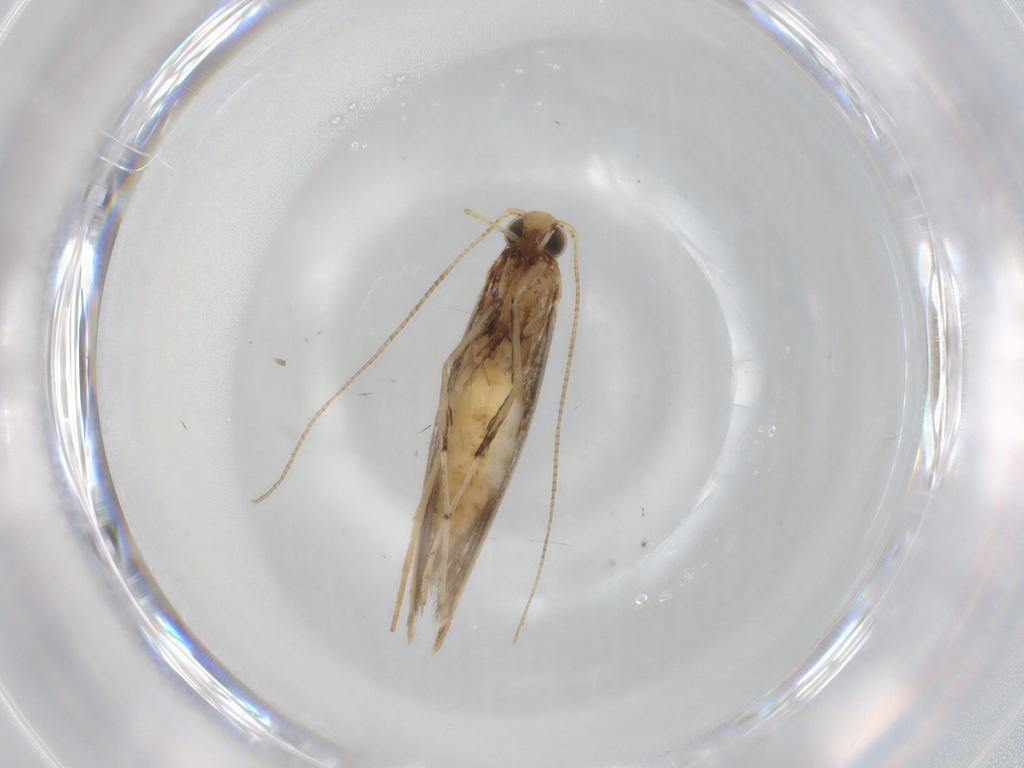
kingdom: Animalia
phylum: Arthropoda
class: Insecta
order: Lepidoptera
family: Gracillariidae
